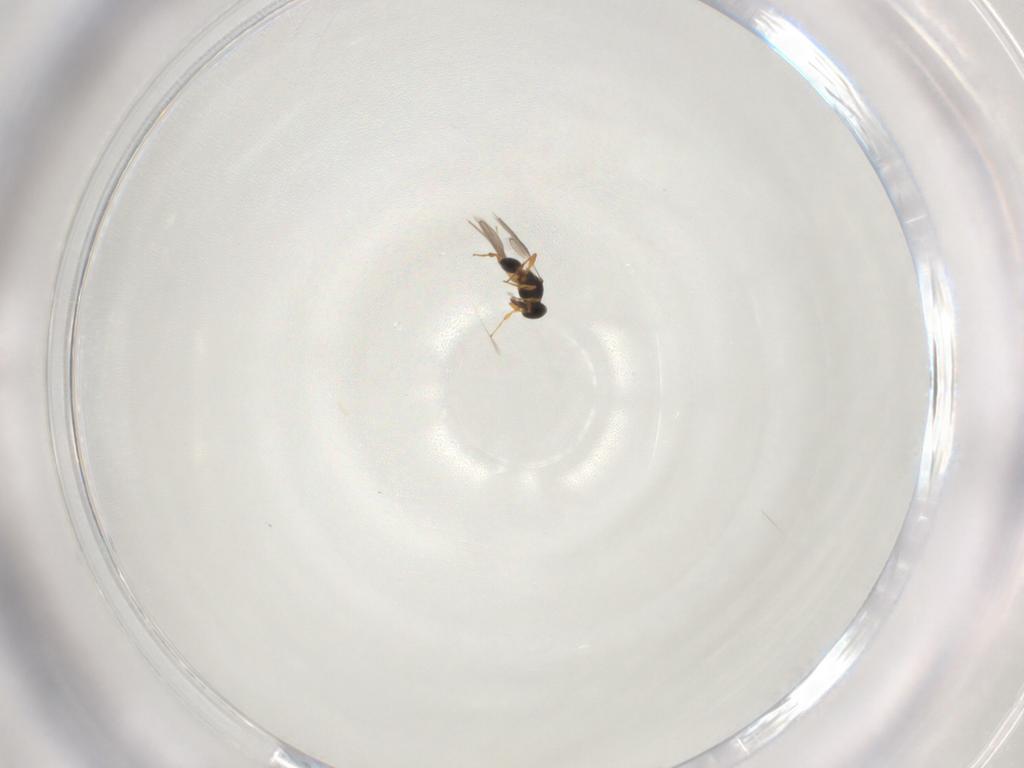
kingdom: Animalia
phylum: Arthropoda
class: Insecta
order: Hymenoptera
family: Platygastridae
